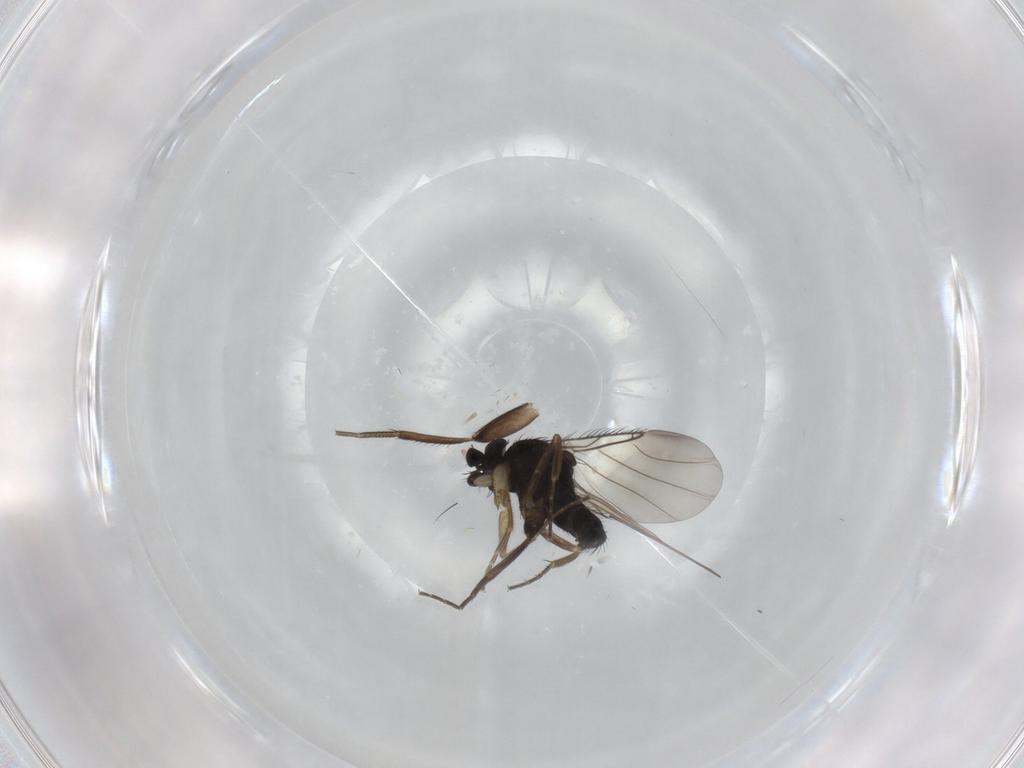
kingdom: Animalia
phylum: Arthropoda
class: Insecta
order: Diptera
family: Phoridae
